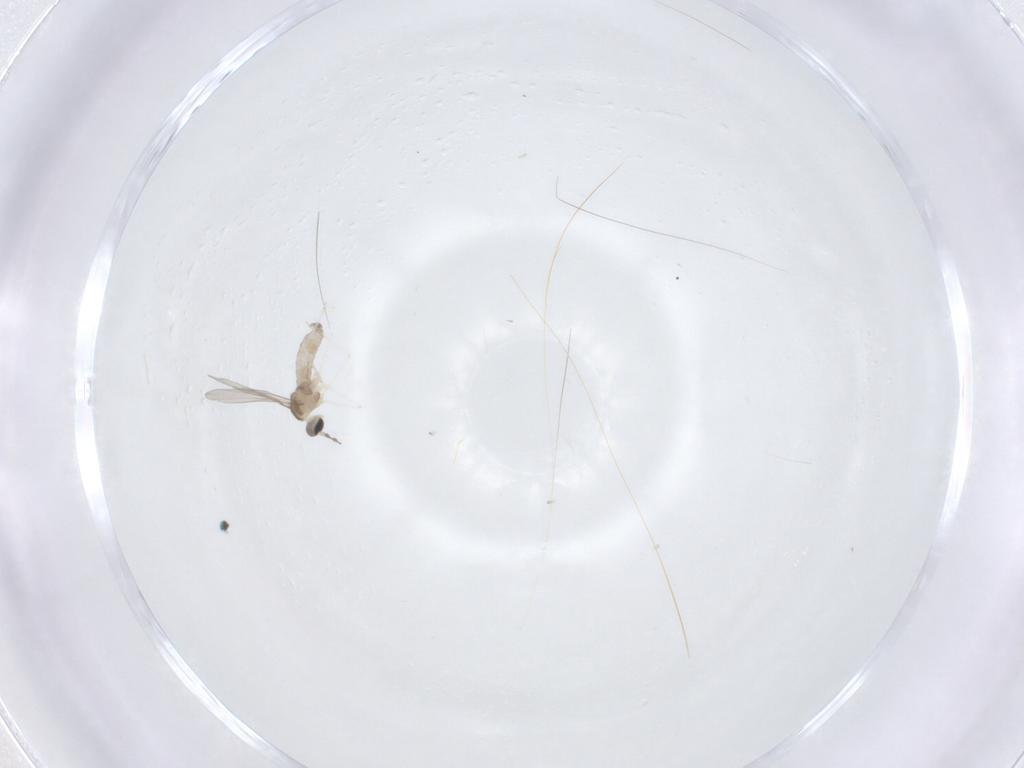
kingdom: Animalia
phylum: Arthropoda
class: Insecta
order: Diptera
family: Cecidomyiidae
